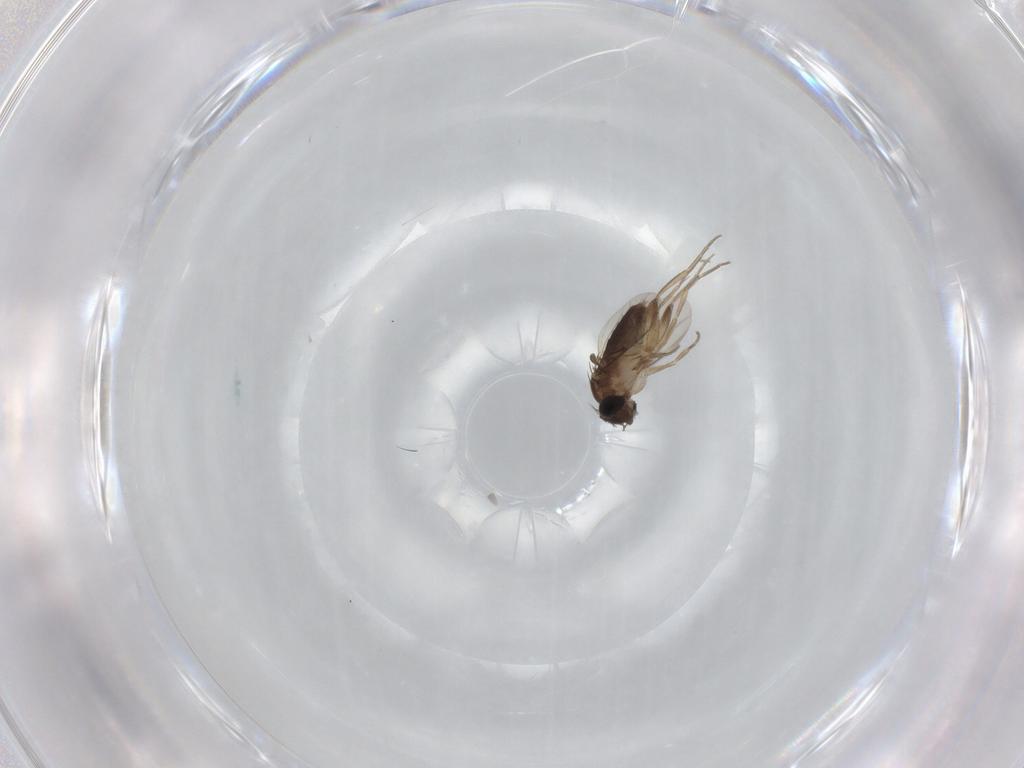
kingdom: Animalia
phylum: Arthropoda
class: Insecta
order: Diptera
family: Phoridae
